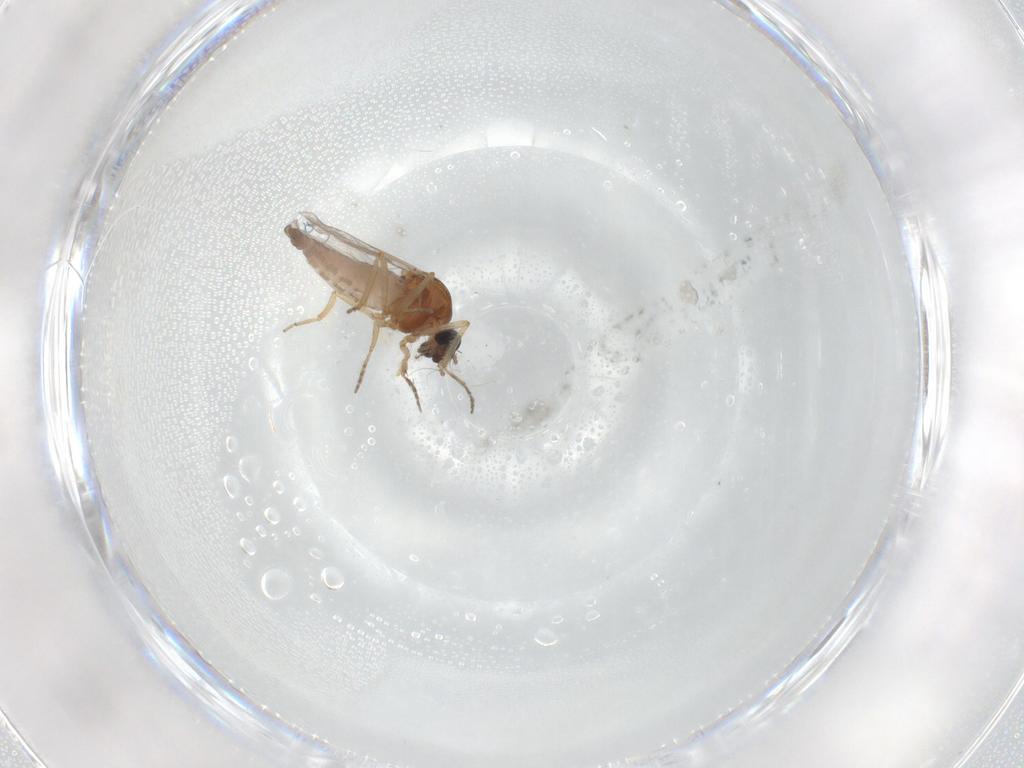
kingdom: Animalia
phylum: Arthropoda
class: Insecta
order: Diptera
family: Ceratopogonidae
